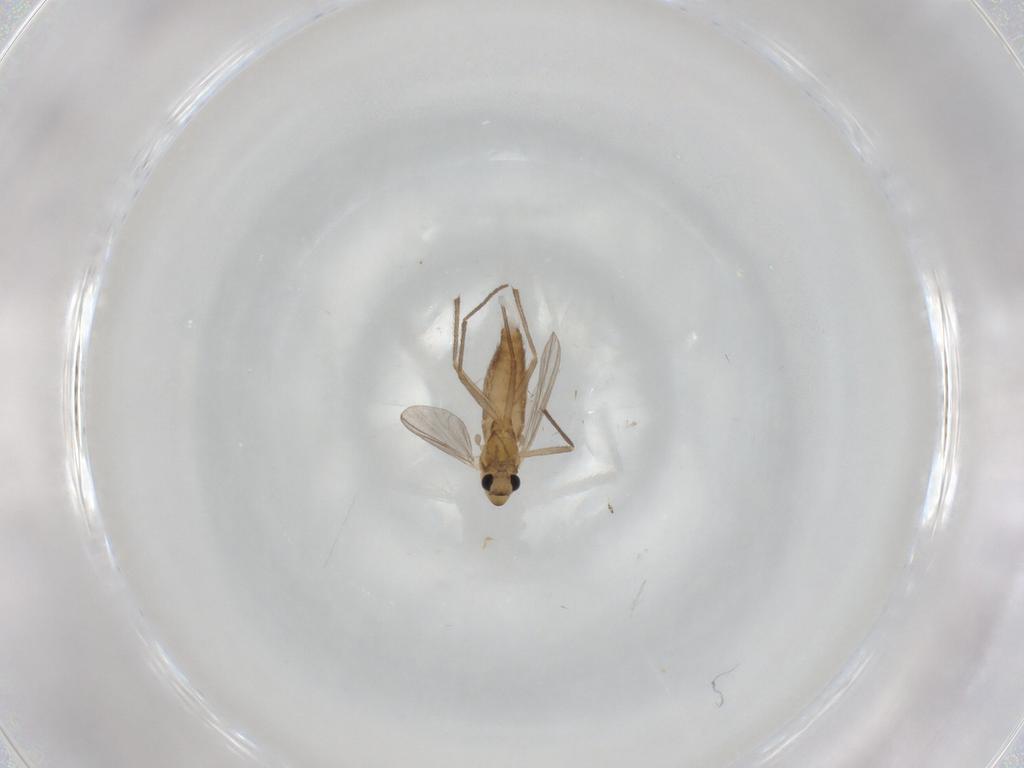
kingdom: Animalia
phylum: Arthropoda
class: Insecta
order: Diptera
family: Chironomidae
